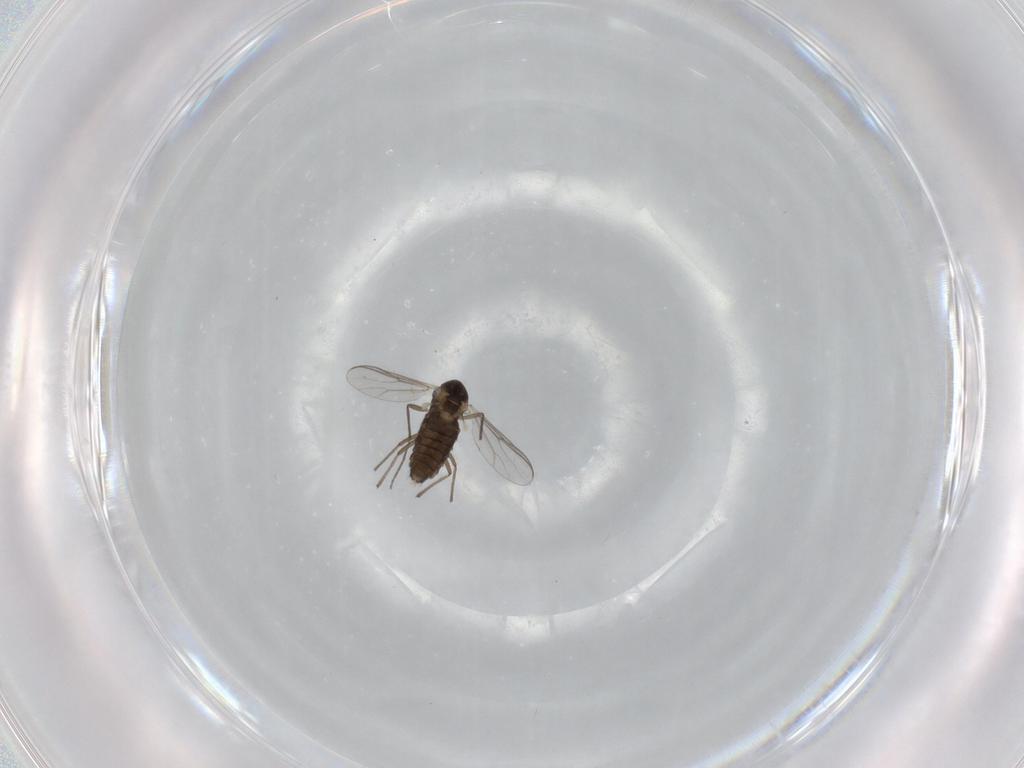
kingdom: Animalia
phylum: Arthropoda
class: Insecta
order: Diptera
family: Chironomidae
